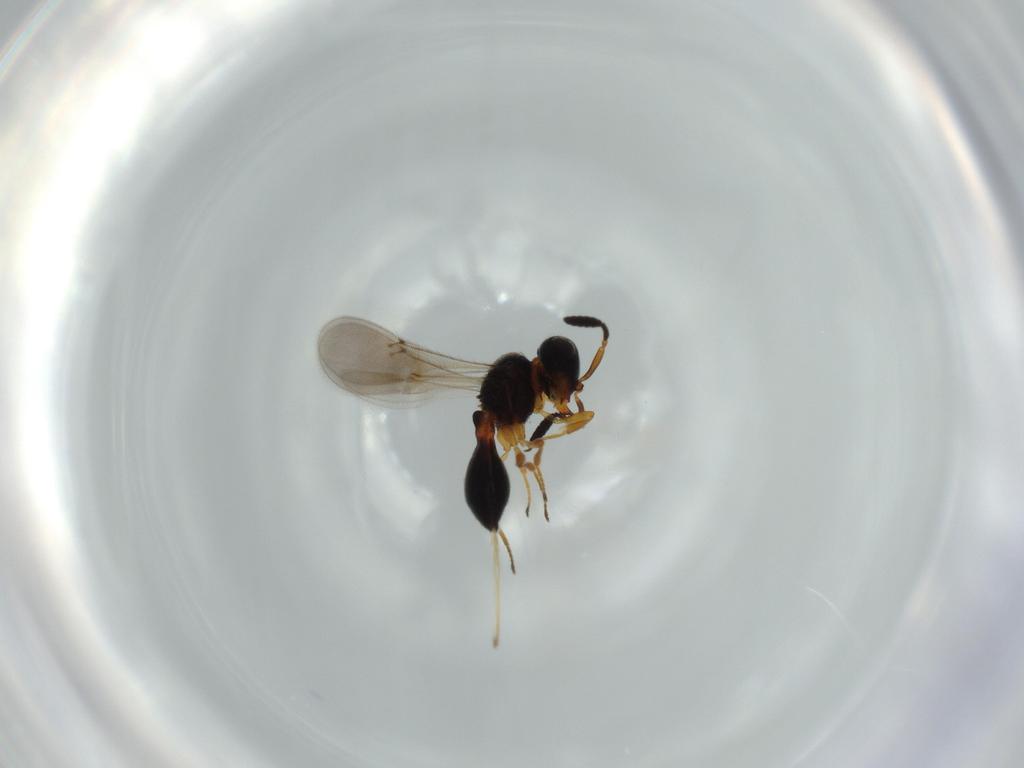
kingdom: Animalia
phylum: Arthropoda
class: Insecta
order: Hymenoptera
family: Scelionidae
